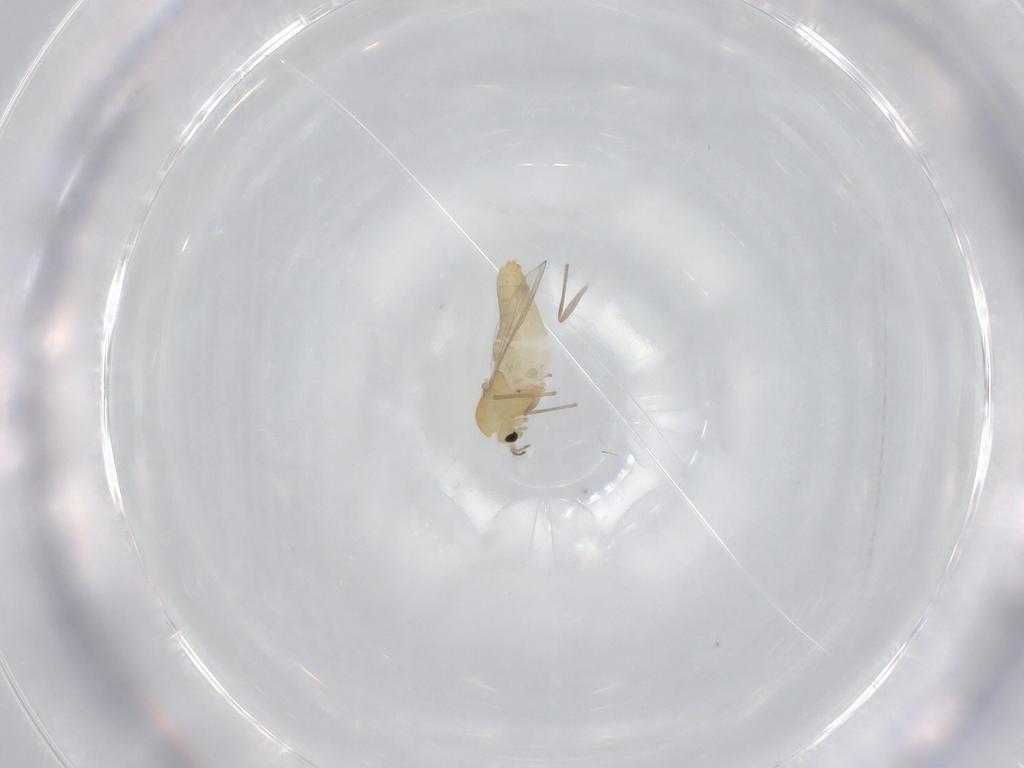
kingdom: Animalia
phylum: Arthropoda
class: Insecta
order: Diptera
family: Chironomidae
